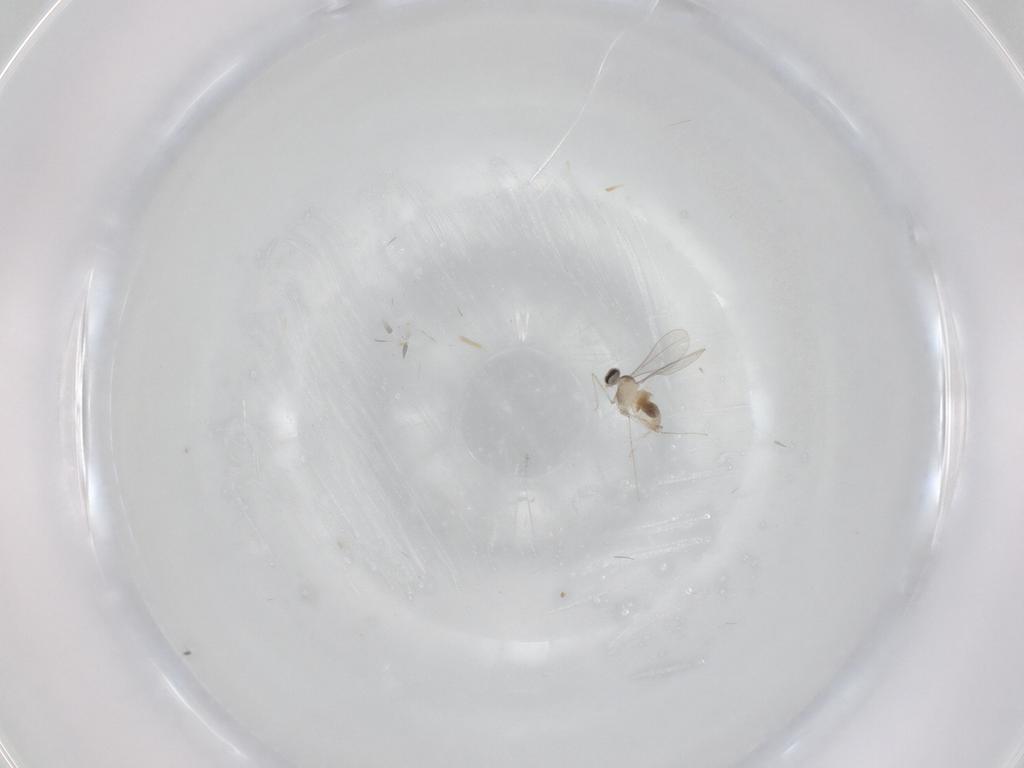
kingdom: Animalia
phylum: Arthropoda
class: Insecta
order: Diptera
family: Cecidomyiidae
